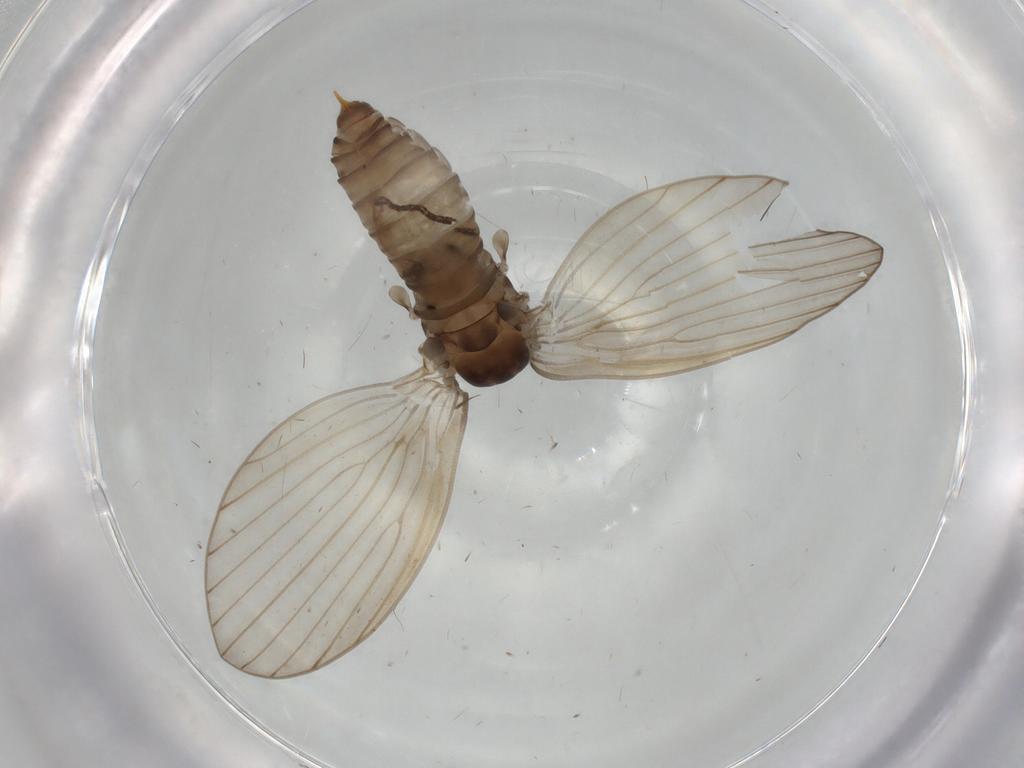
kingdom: Animalia
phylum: Arthropoda
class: Insecta
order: Diptera
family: Sciaridae
